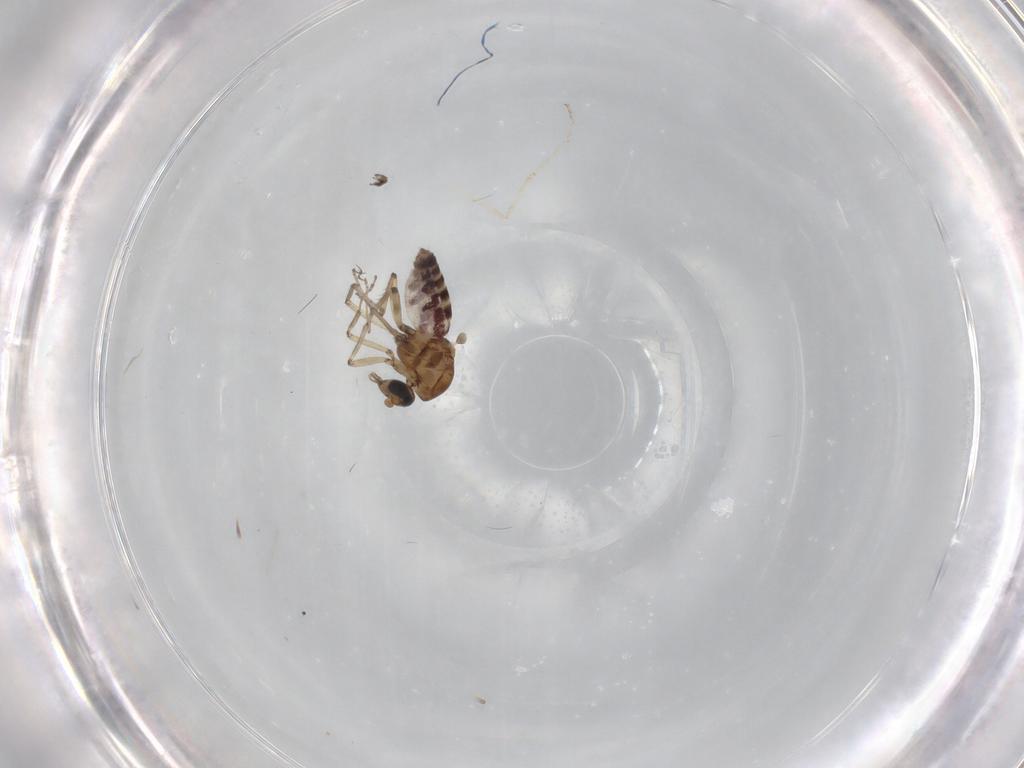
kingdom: Animalia
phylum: Arthropoda
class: Insecta
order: Diptera
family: Ceratopogonidae
